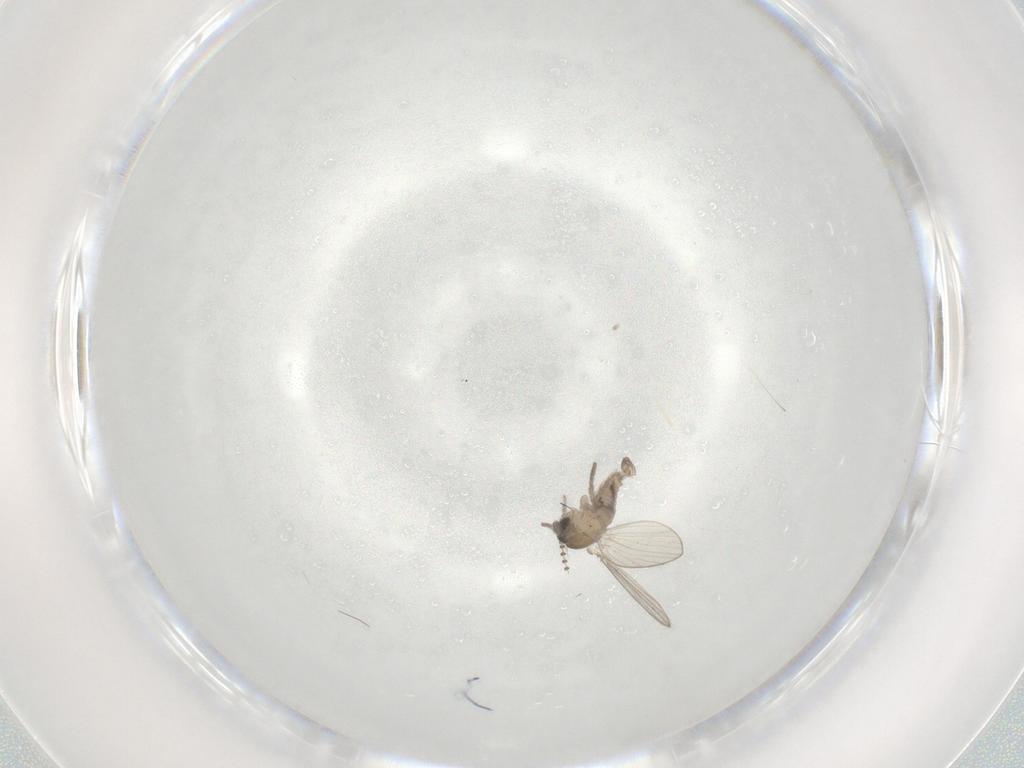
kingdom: Animalia
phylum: Arthropoda
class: Insecta
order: Diptera
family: Psychodidae
